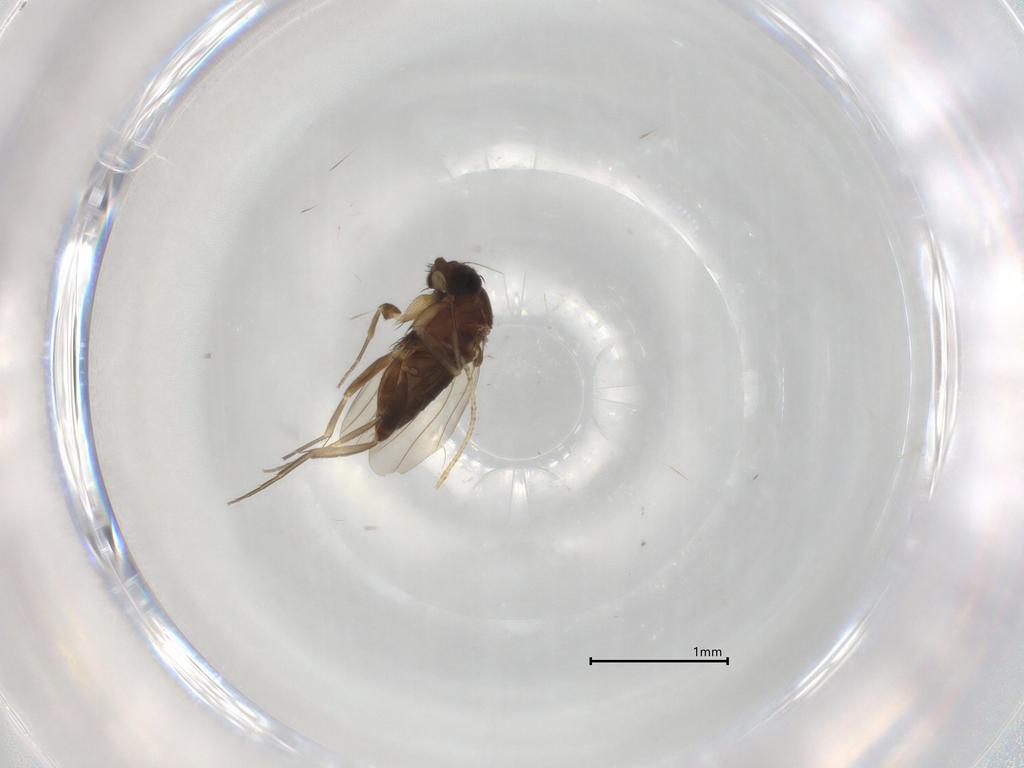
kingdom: Animalia
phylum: Arthropoda
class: Insecta
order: Diptera
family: Phoridae
